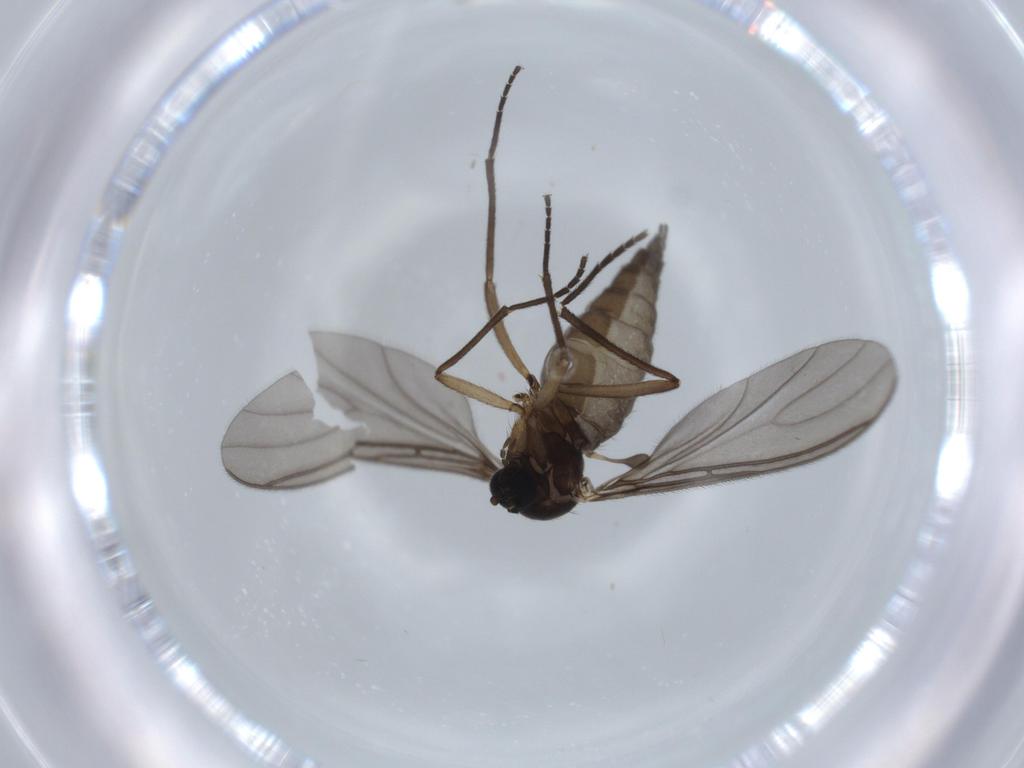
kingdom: Animalia
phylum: Arthropoda
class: Insecta
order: Diptera
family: Sciaridae
